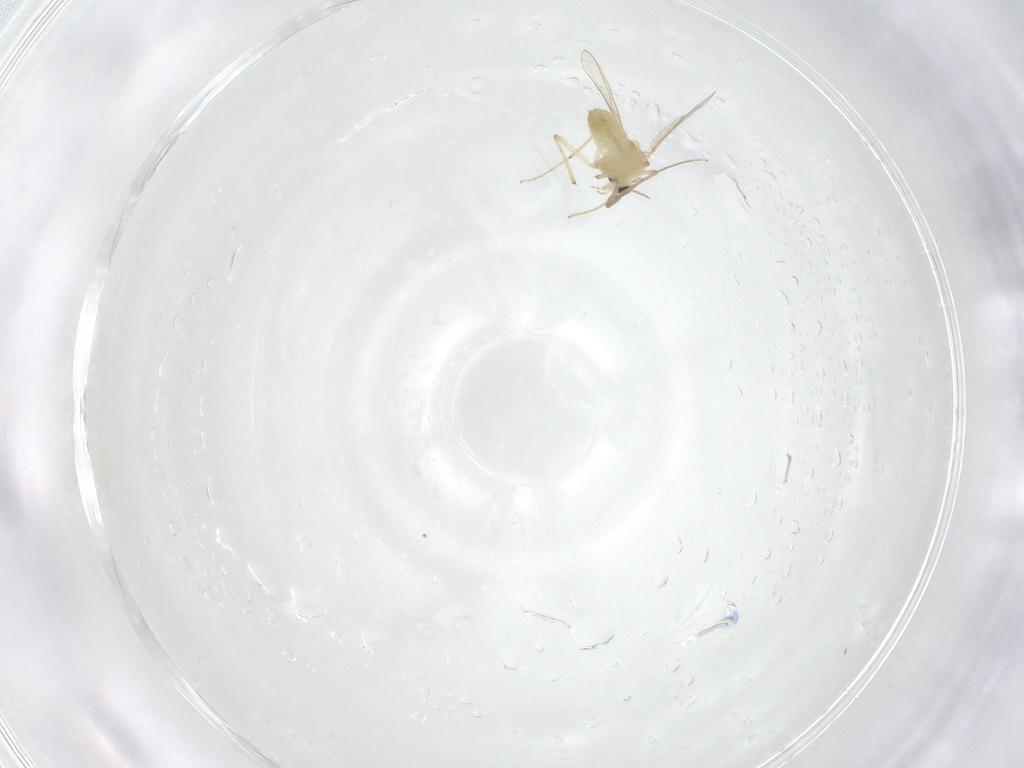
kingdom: Animalia
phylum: Arthropoda
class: Insecta
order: Diptera
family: Chironomidae
